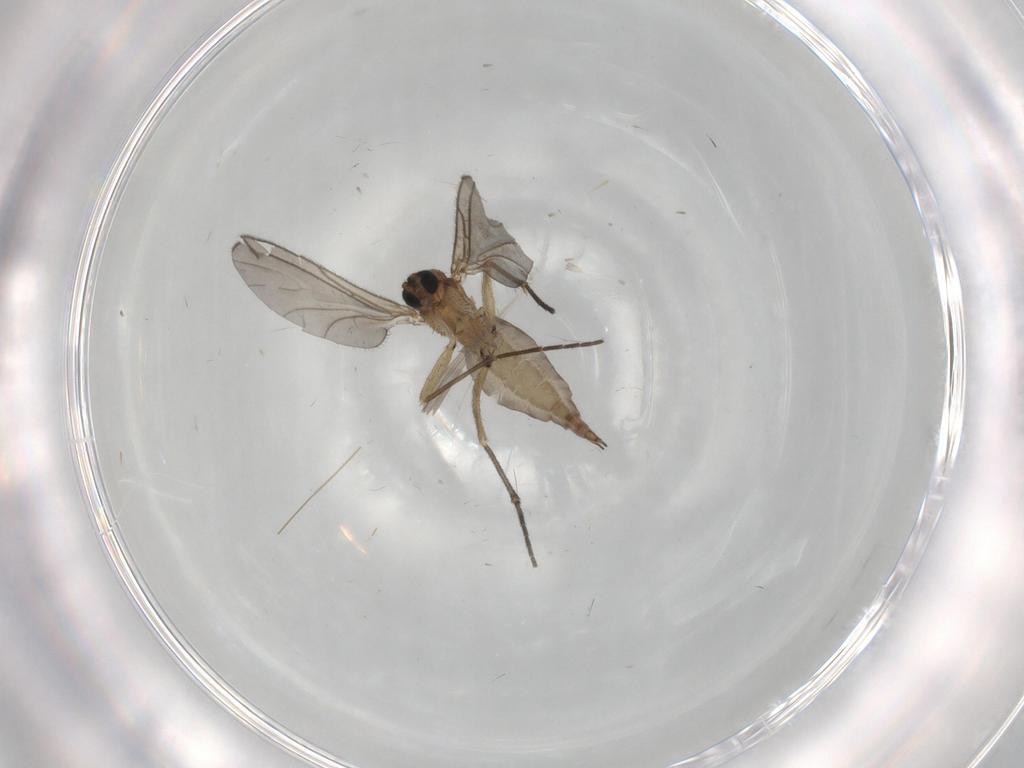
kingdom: Animalia
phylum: Arthropoda
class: Insecta
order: Diptera
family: Sciaridae
